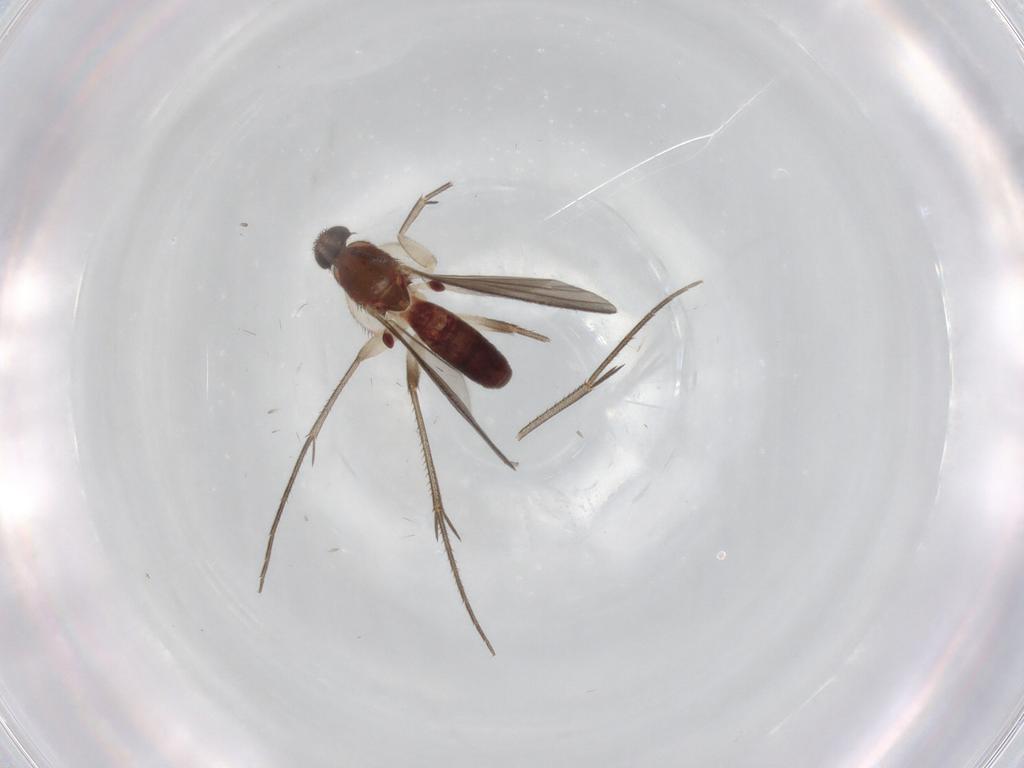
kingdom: Animalia
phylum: Arthropoda
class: Insecta
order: Diptera
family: Mycetophilidae
